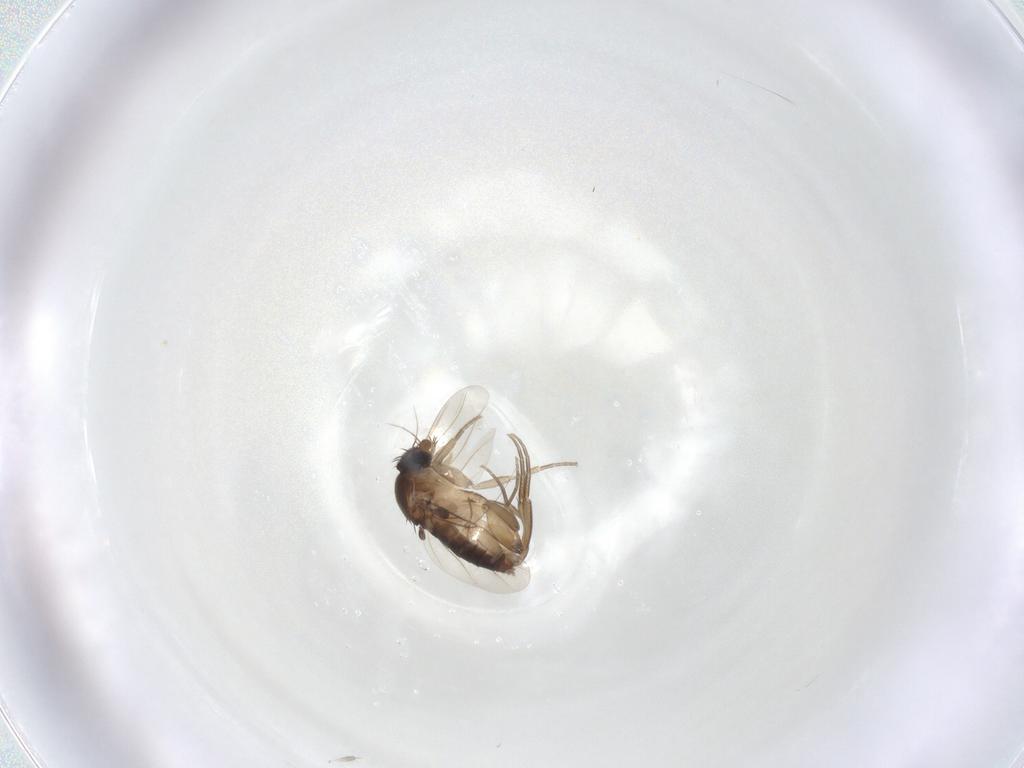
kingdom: Animalia
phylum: Arthropoda
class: Insecta
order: Diptera
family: Phoridae
